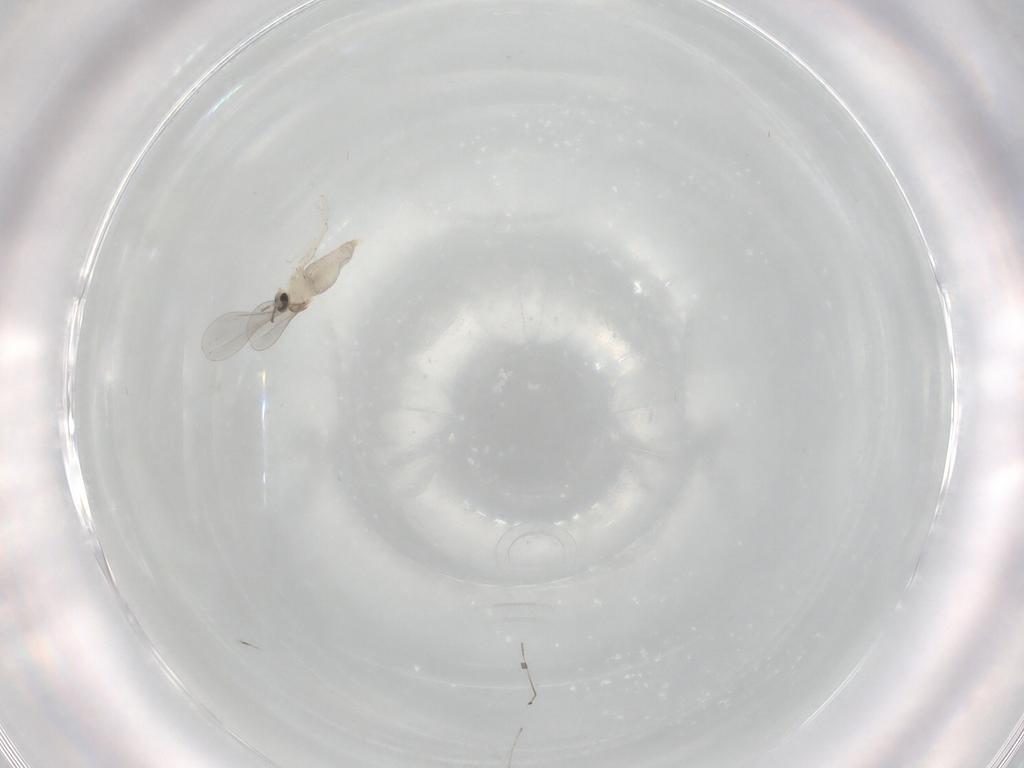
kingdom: Animalia
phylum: Arthropoda
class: Insecta
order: Diptera
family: Cecidomyiidae
